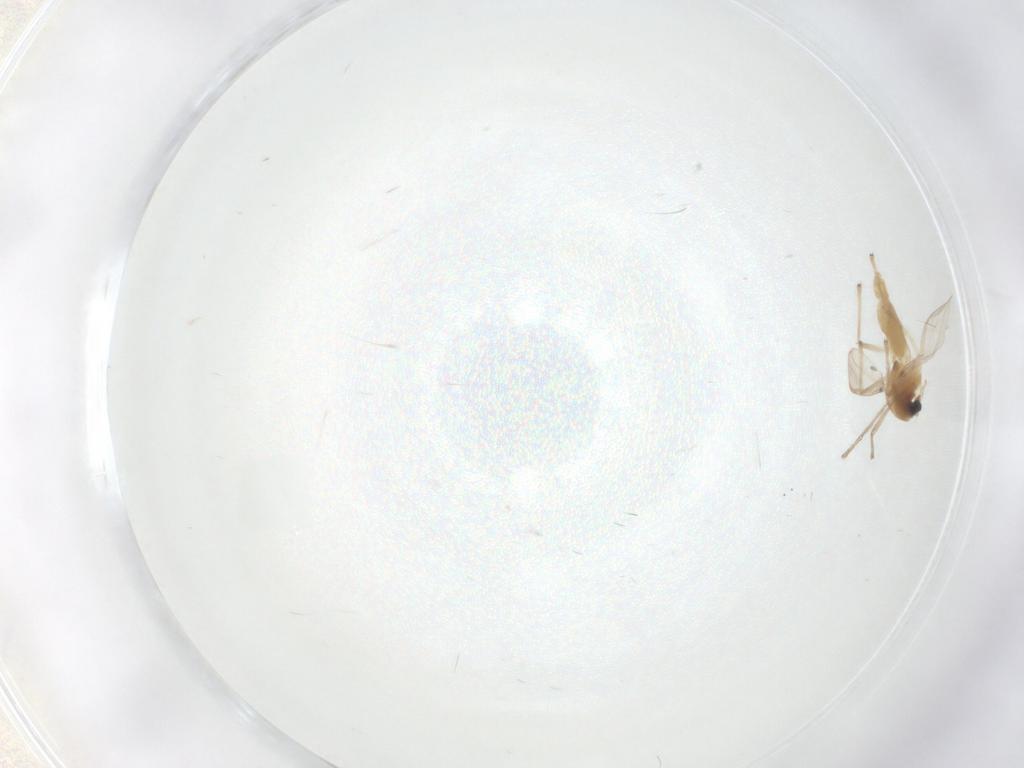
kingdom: Animalia
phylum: Arthropoda
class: Insecta
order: Diptera
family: Chironomidae
